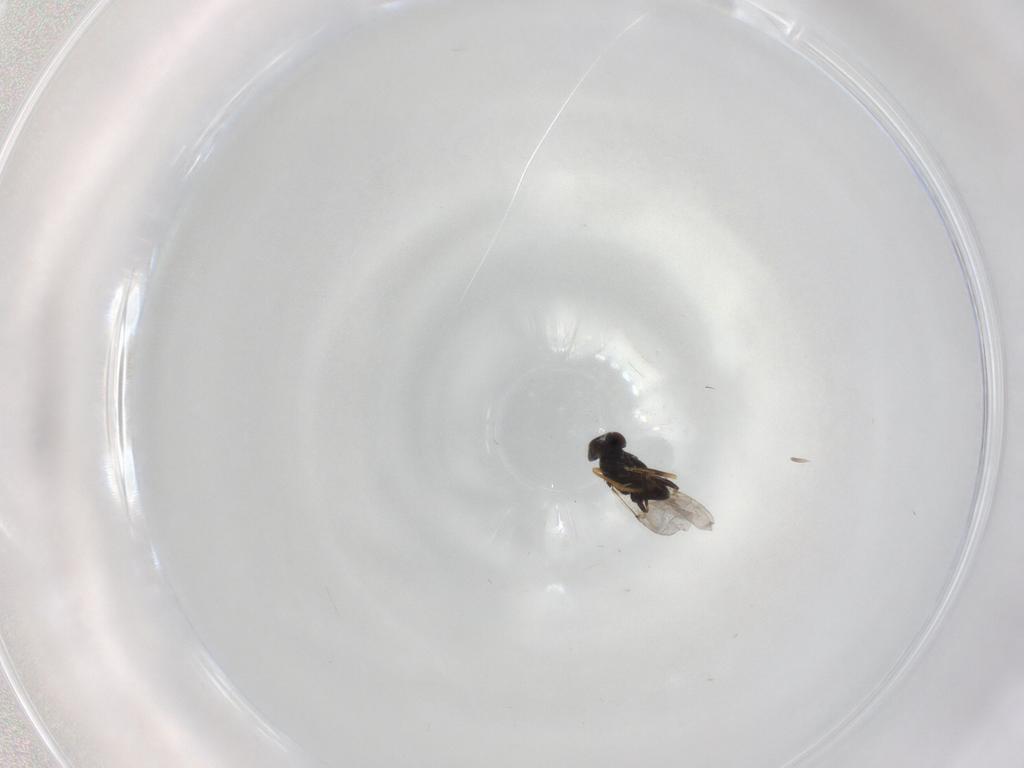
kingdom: Animalia
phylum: Arthropoda
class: Insecta
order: Hymenoptera
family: Encyrtidae
